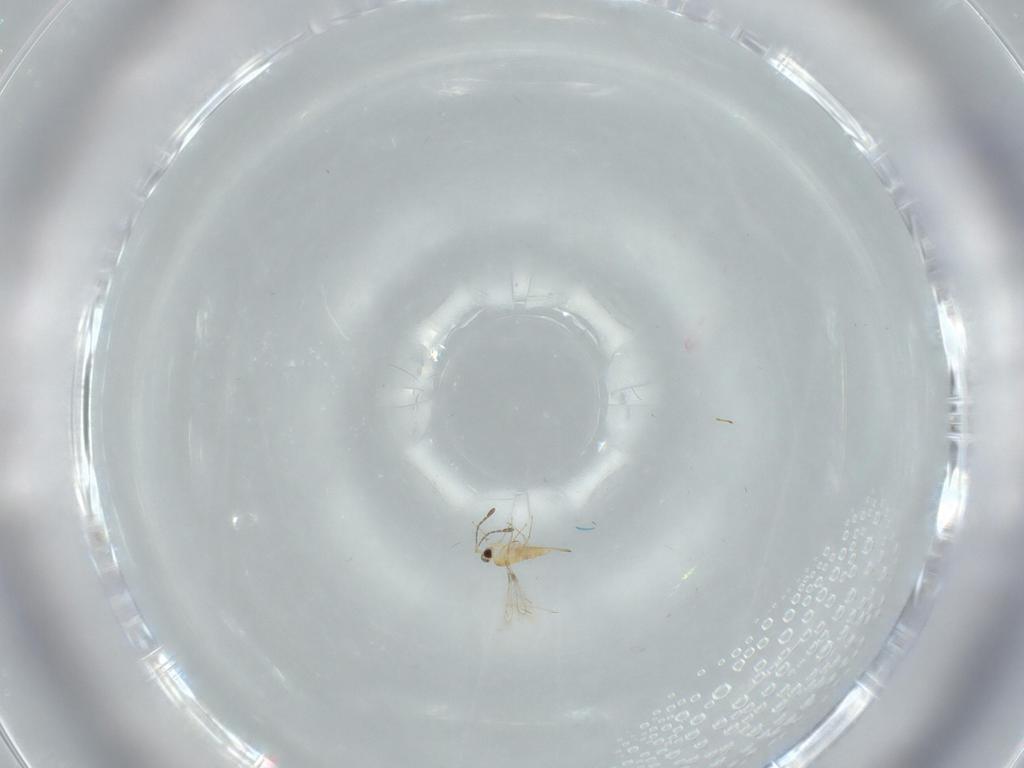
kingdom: Animalia
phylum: Arthropoda
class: Insecta
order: Hymenoptera
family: Platygastridae
